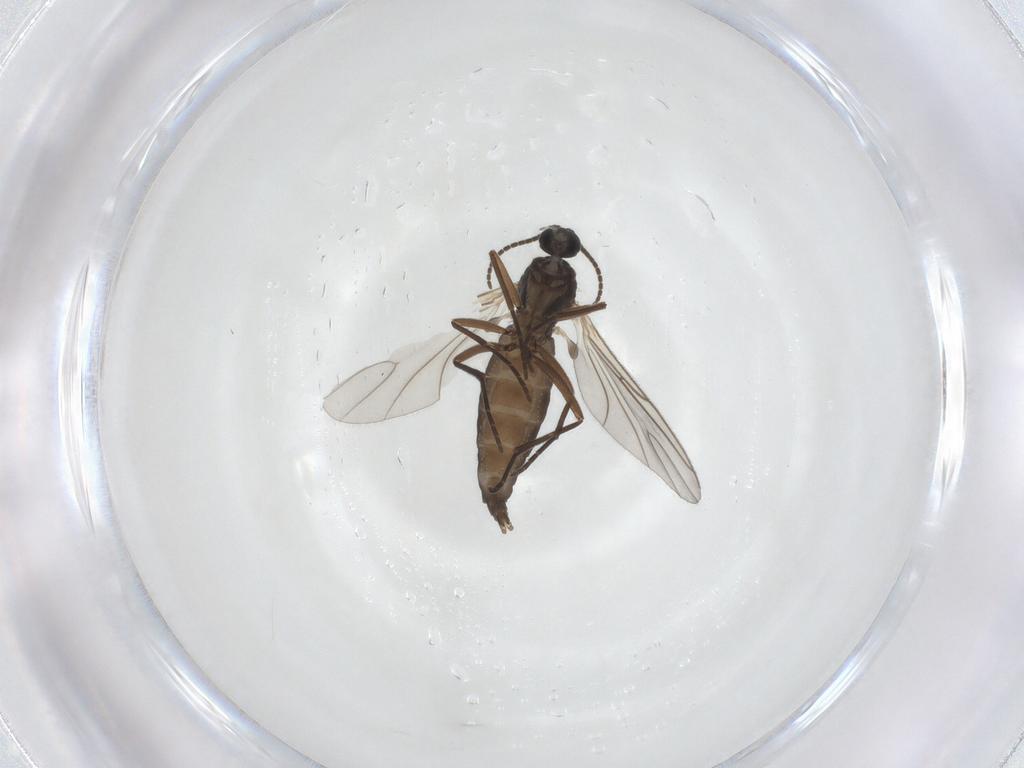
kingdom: Animalia
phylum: Arthropoda
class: Insecta
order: Diptera
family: Sciaridae
